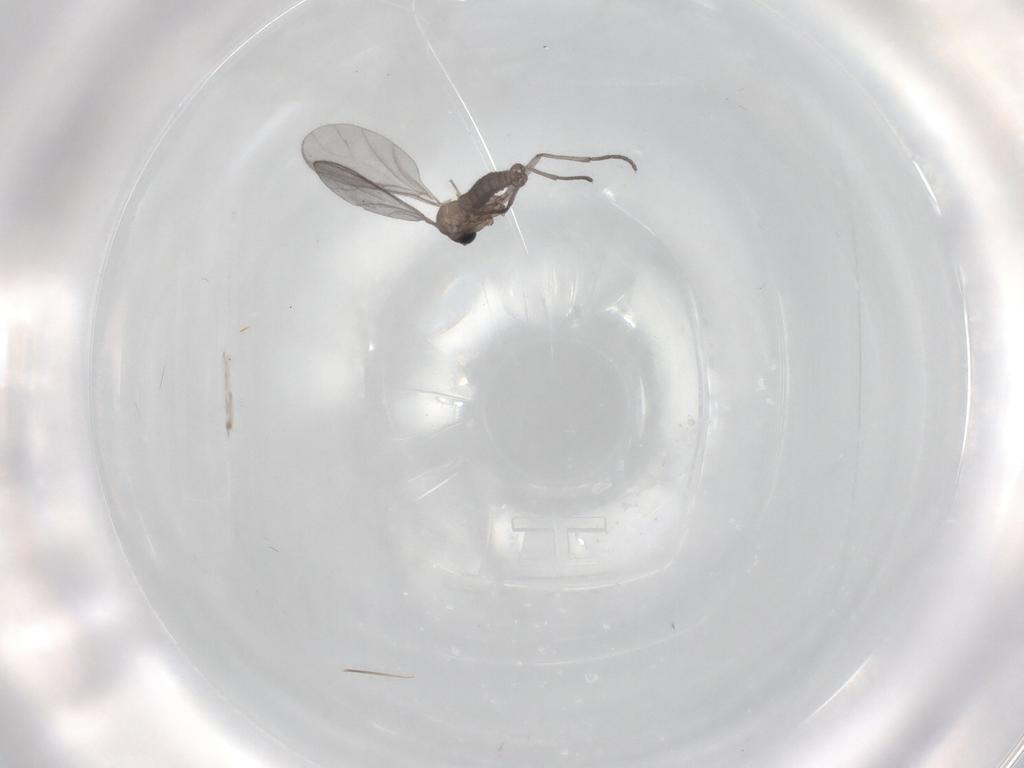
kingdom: Animalia
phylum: Arthropoda
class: Insecta
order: Diptera
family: Sciaridae
